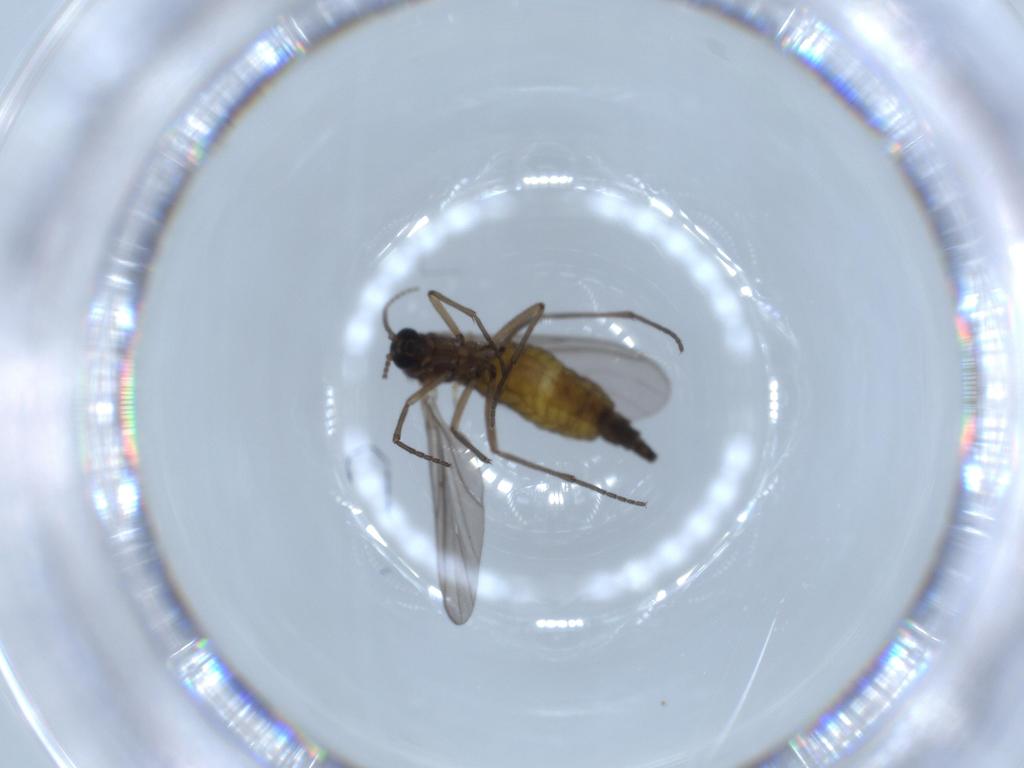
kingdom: Animalia
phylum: Arthropoda
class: Insecta
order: Diptera
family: Sciaridae
